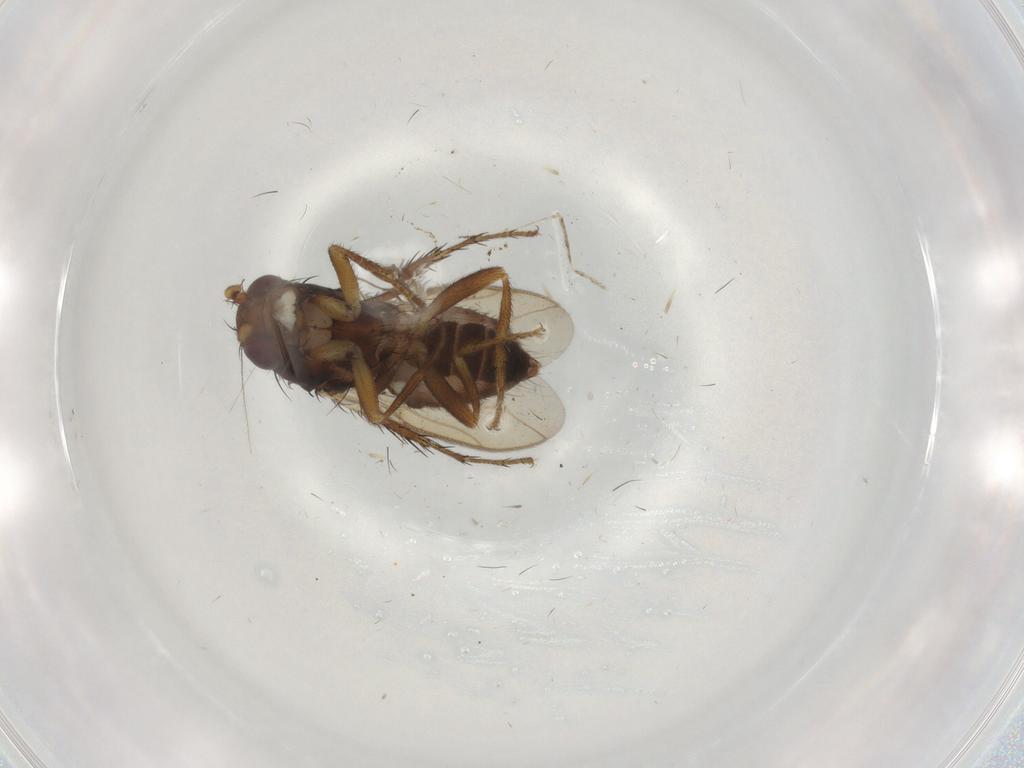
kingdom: Animalia
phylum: Arthropoda
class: Insecta
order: Diptera
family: Sphaeroceridae
